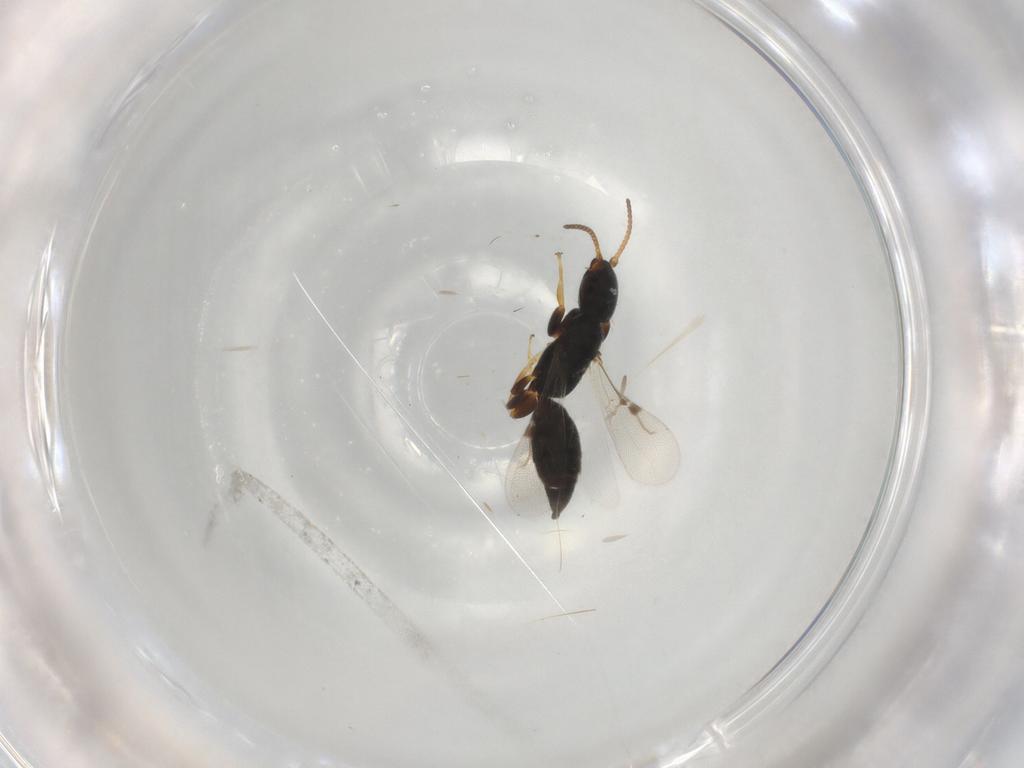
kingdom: Animalia
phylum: Arthropoda
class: Insecta
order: Hymenoptera
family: Bethylidae
